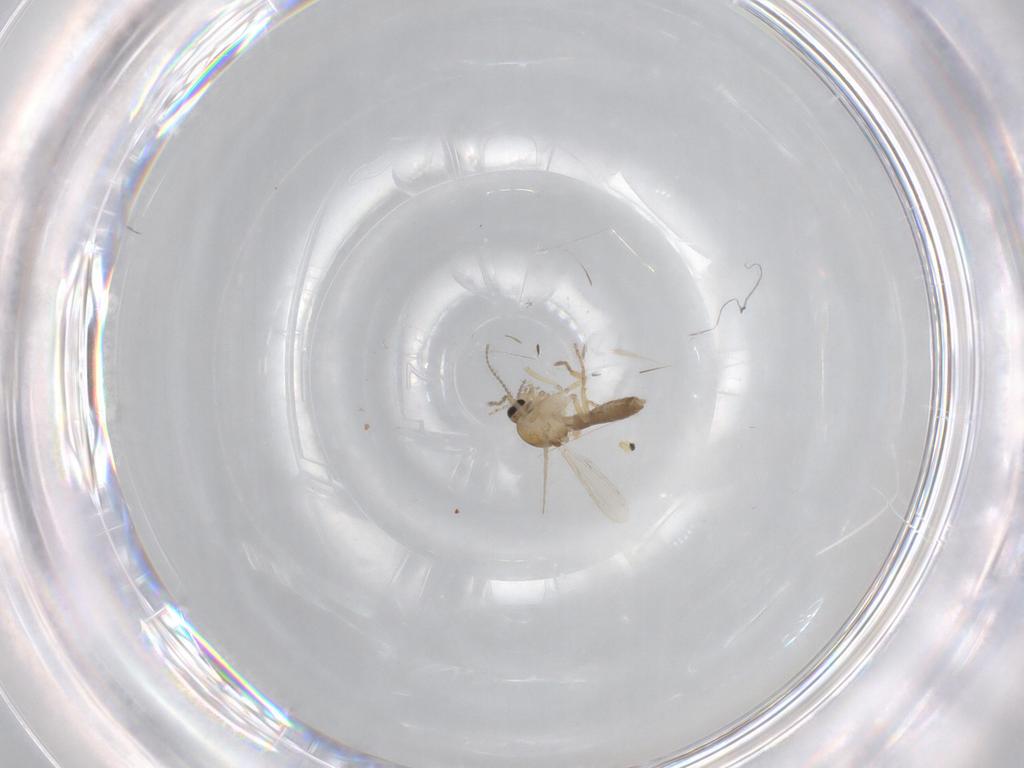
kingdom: Animalia
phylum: Arthropoda
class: Insecta
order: Diptera
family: Ceratopogonidae
